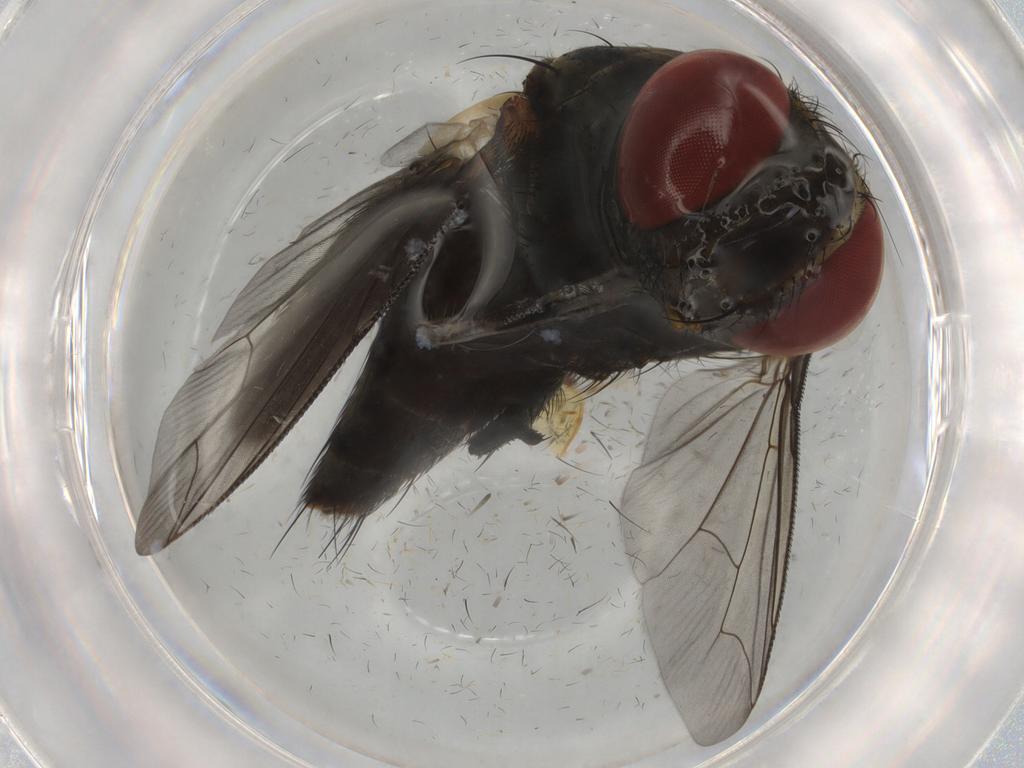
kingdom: Animalia
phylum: Arthropoda
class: Insecta
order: Diptera
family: Sarcophagidae
